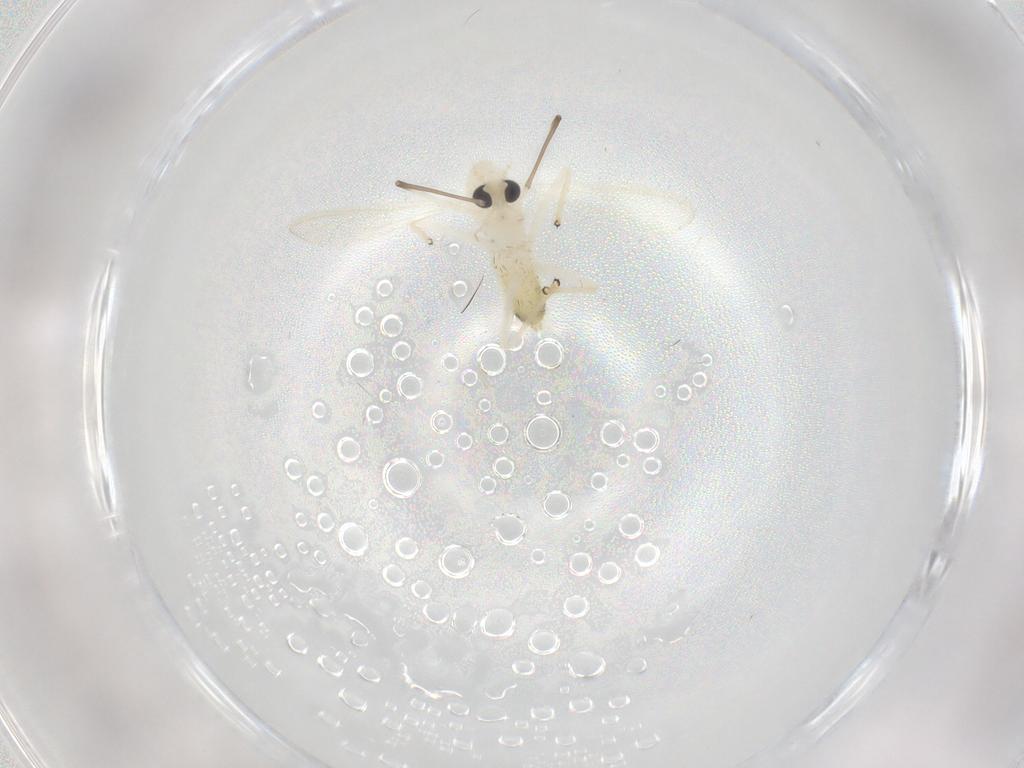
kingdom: Animalia
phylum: Arthropoda
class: Insecta
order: Diptera
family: Chironomidae
